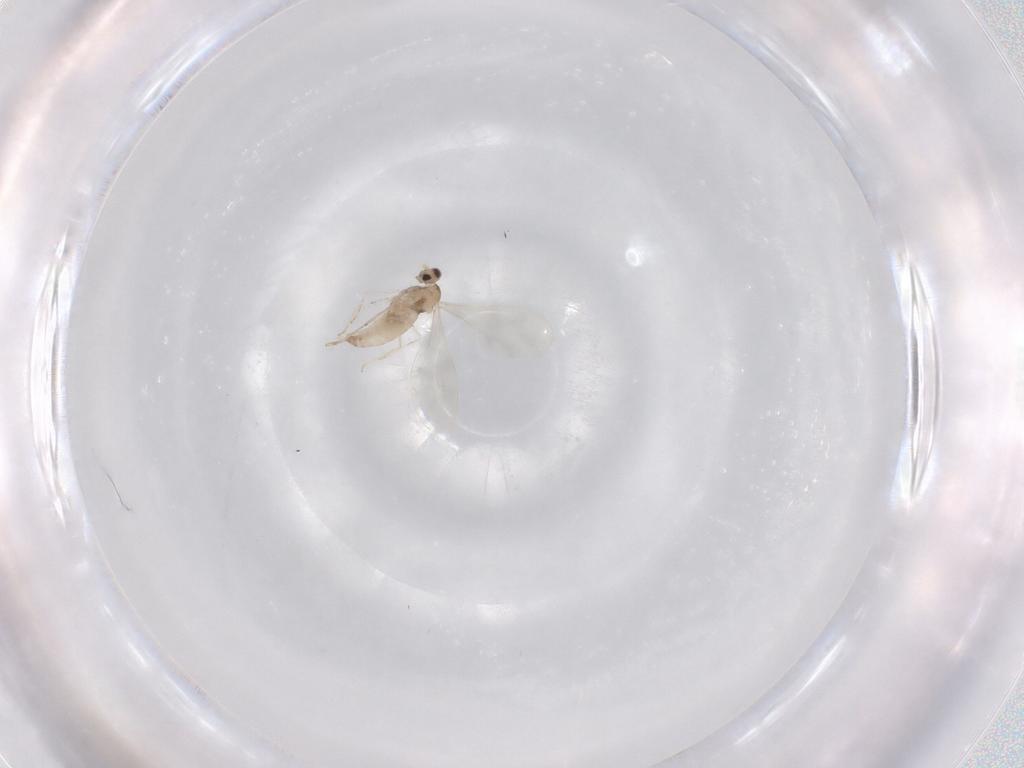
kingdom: Animalia
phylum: Arthropoda
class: Insecta
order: Diptera
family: Cecidomyiidae
